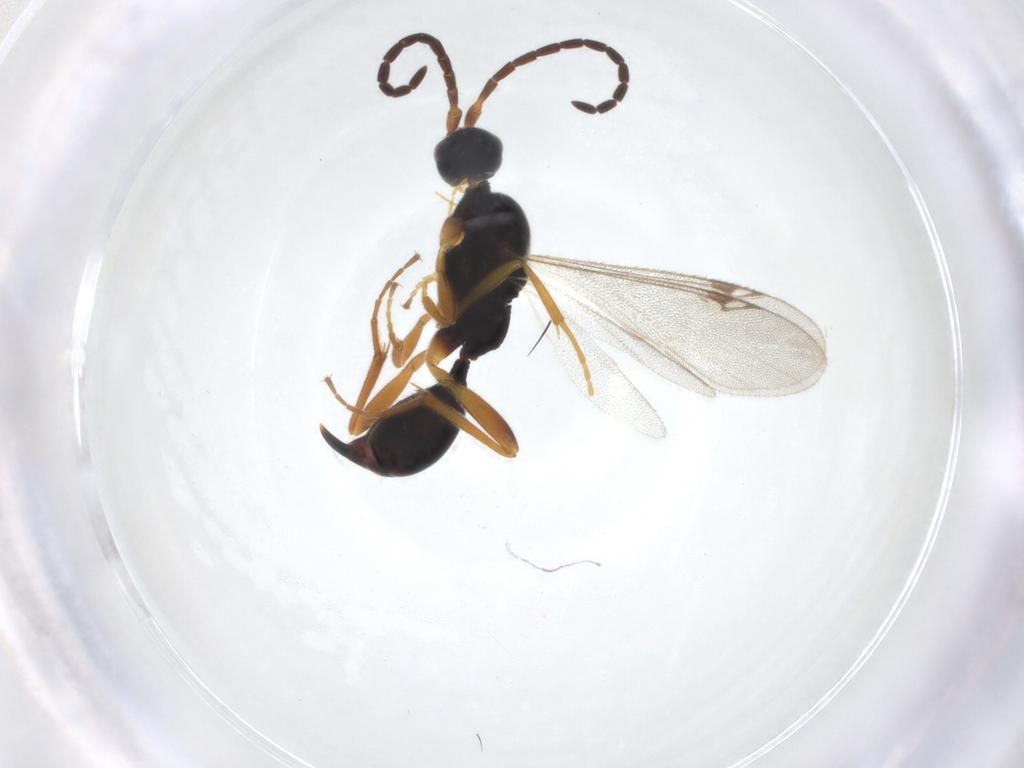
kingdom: Animalia
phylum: Arthropoda
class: Insecta
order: Hymenoptera
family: Proctotrupidae
